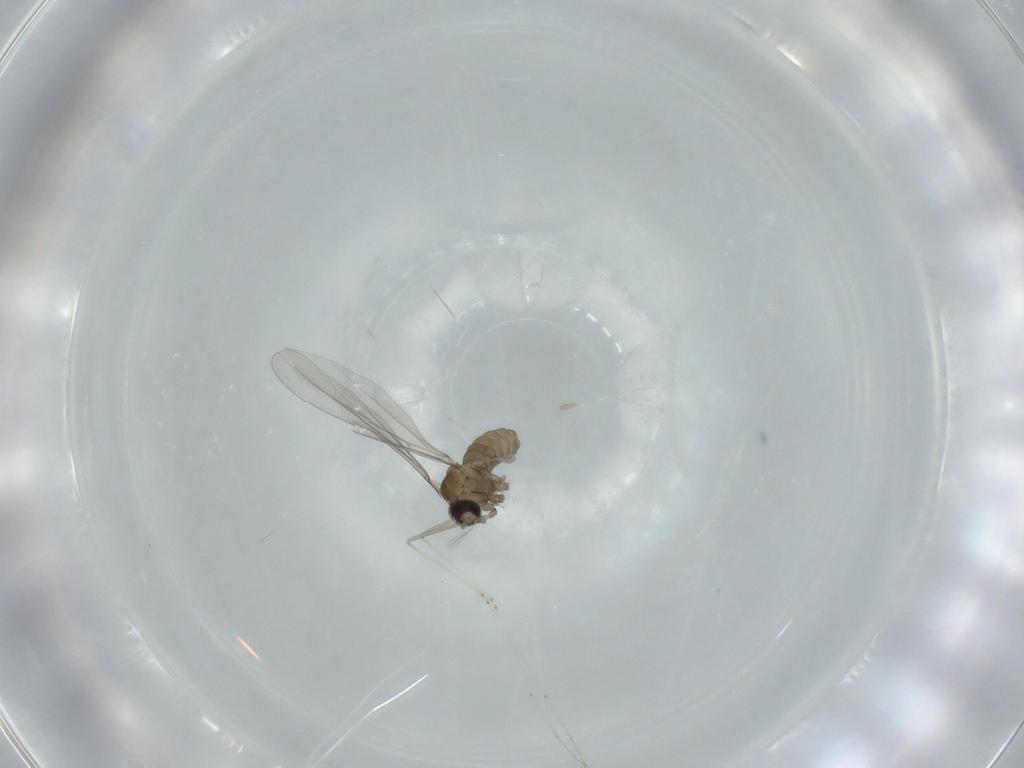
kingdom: Animalia
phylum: Arthropoda
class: Insecta
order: Diptera
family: Cecidomyiidae
